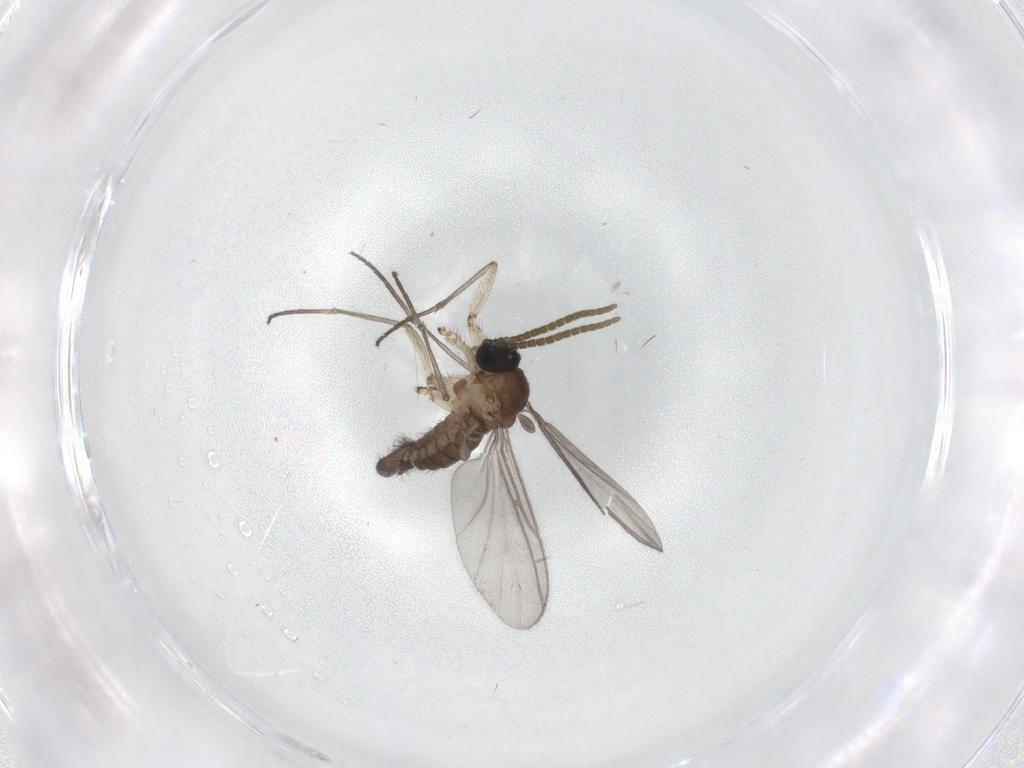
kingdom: Animalia
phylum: Arthropoda
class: Insecta
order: Diptera
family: Sciaridae
